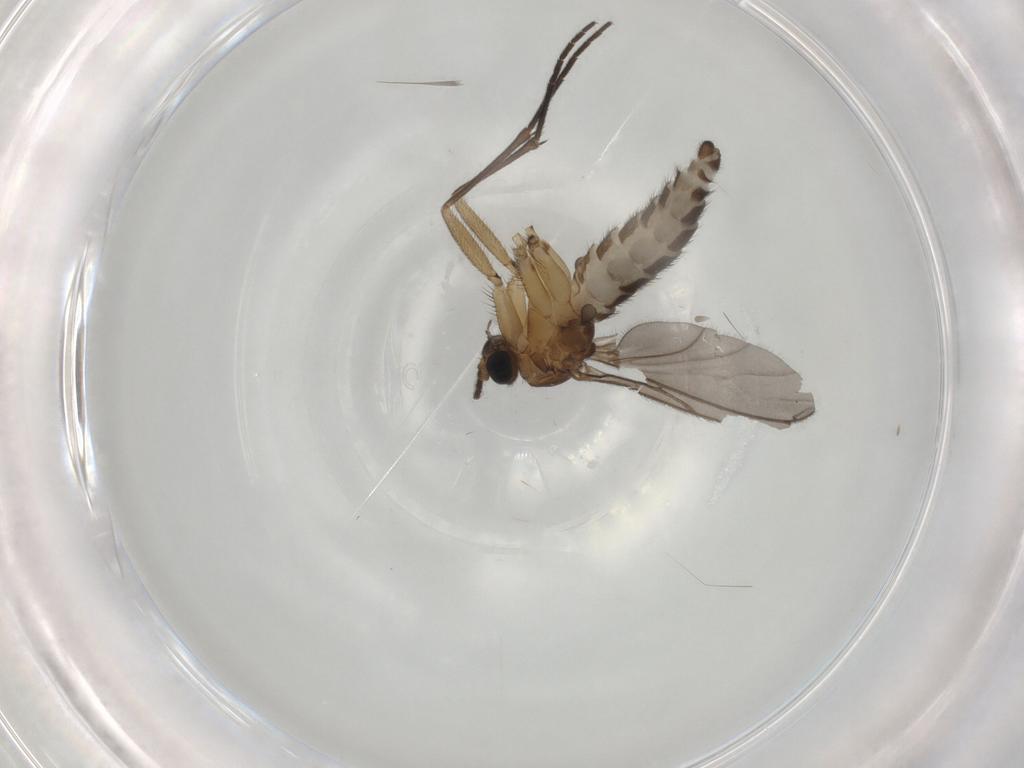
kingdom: Animalia
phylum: Arthropoda
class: Insecta
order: Diptera
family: Sciaridae
